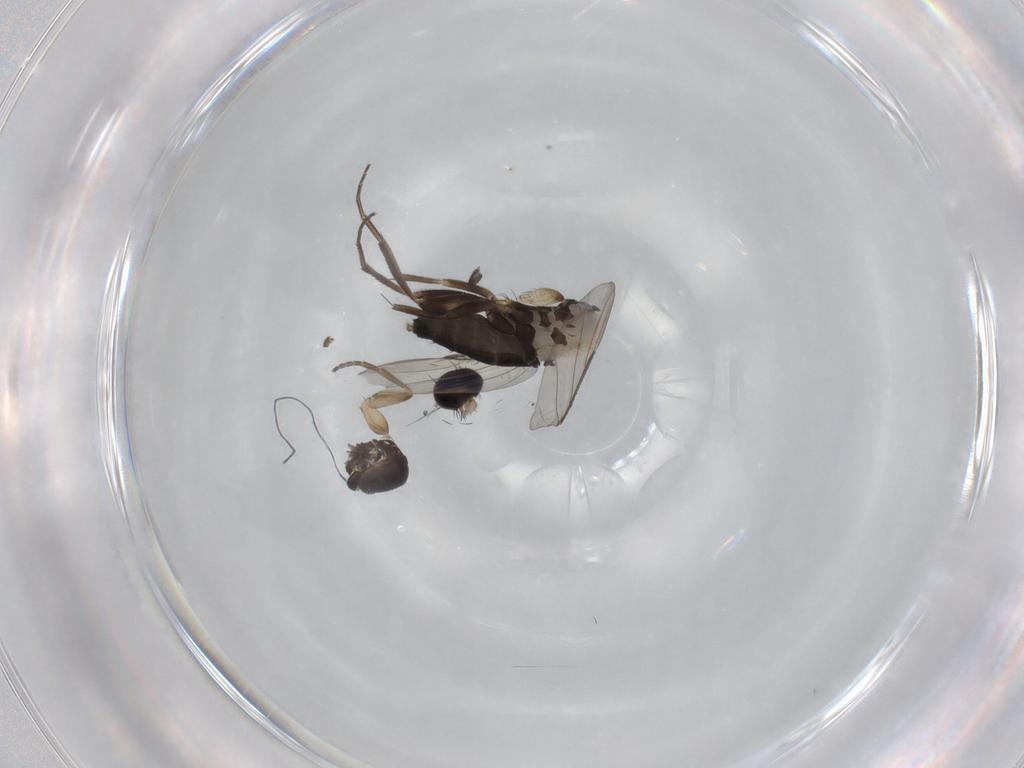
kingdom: Animalia
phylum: Arthropoda
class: Insecta
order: Diptera
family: Phoridae
